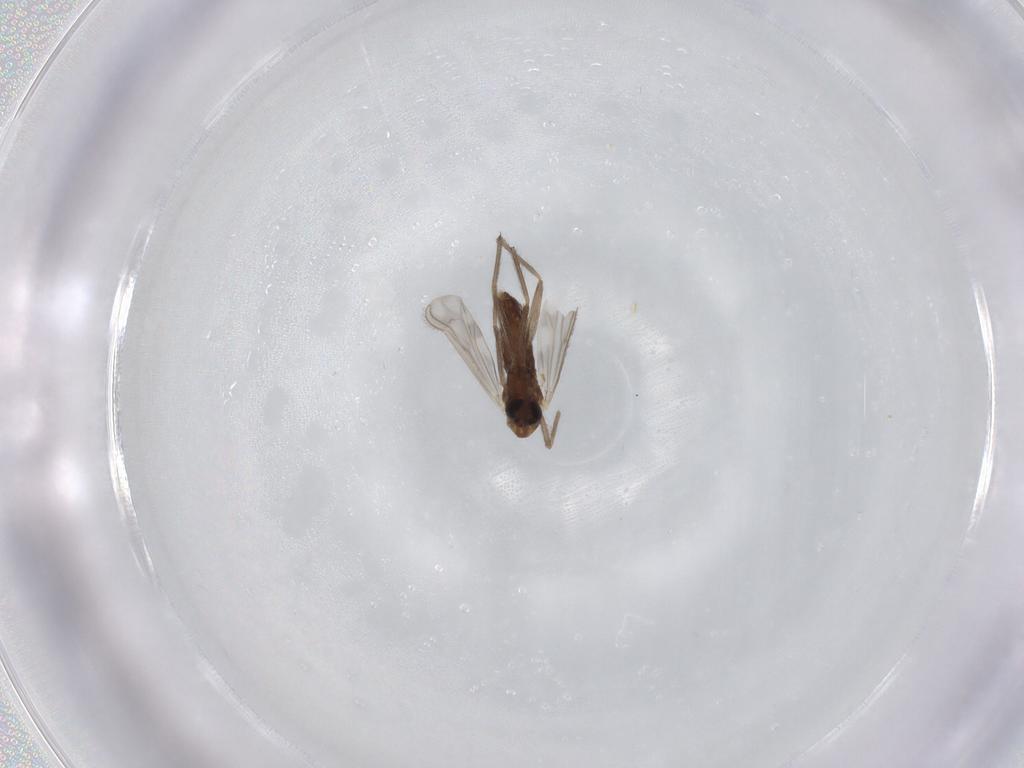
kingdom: Animalia
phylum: Arthropoda
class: Insecta
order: Diptera
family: Chironomidae
